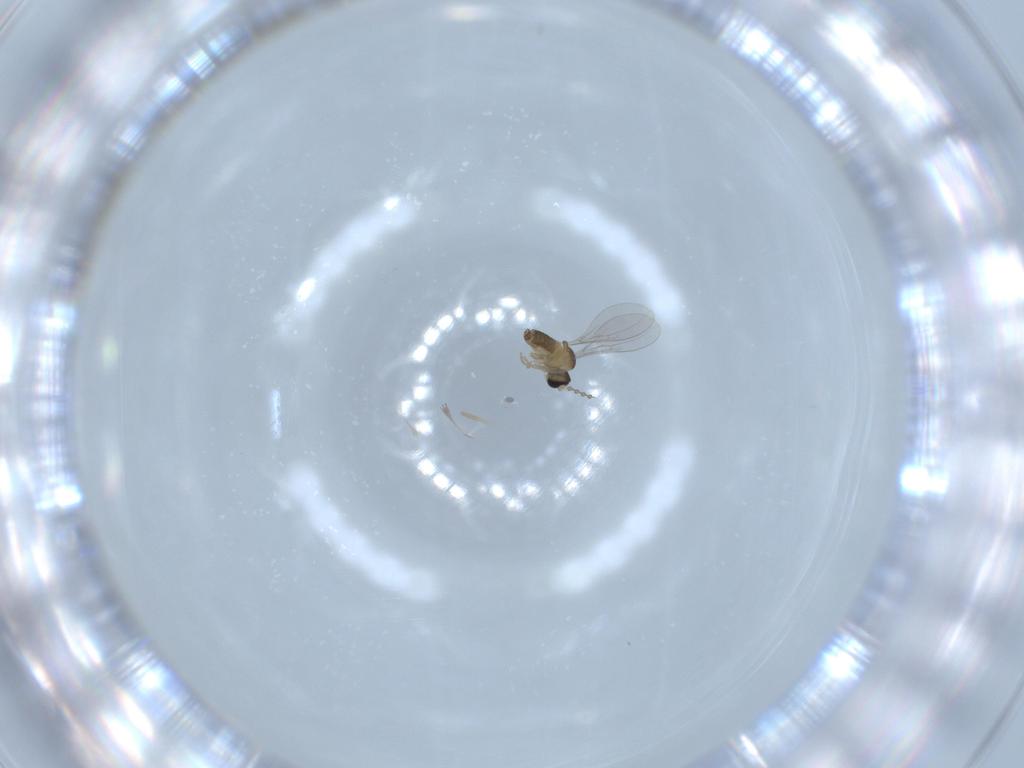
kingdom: Animalia
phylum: Arthropoda
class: Insecta
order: Diptera
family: Cecidomyiidae
